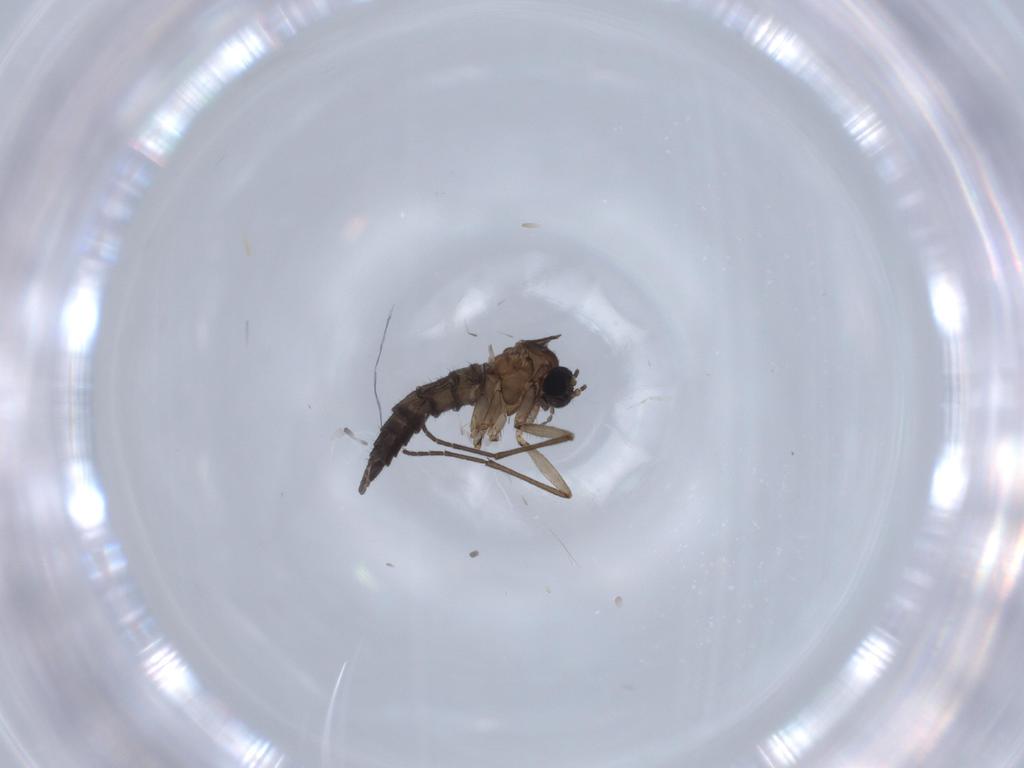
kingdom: Animalia
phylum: Arthropoda
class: Insecta
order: Diptera
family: Sciaridae
